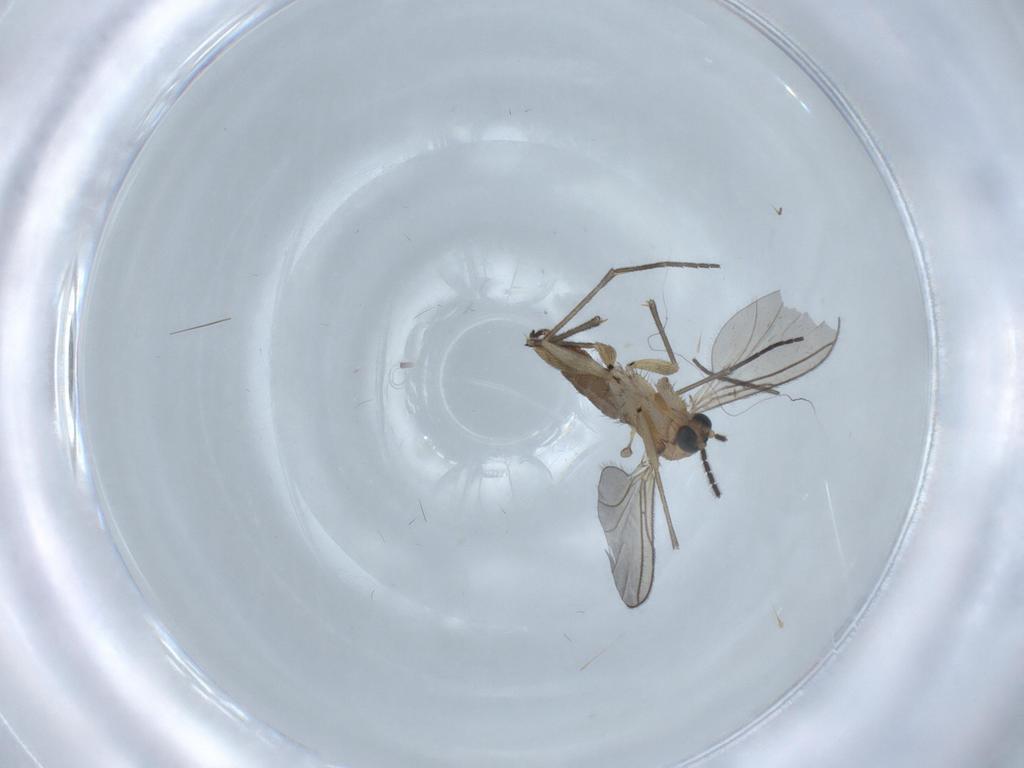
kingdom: Animalia
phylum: Arthropoda
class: Insecta
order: Diptera
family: Sciaridae
